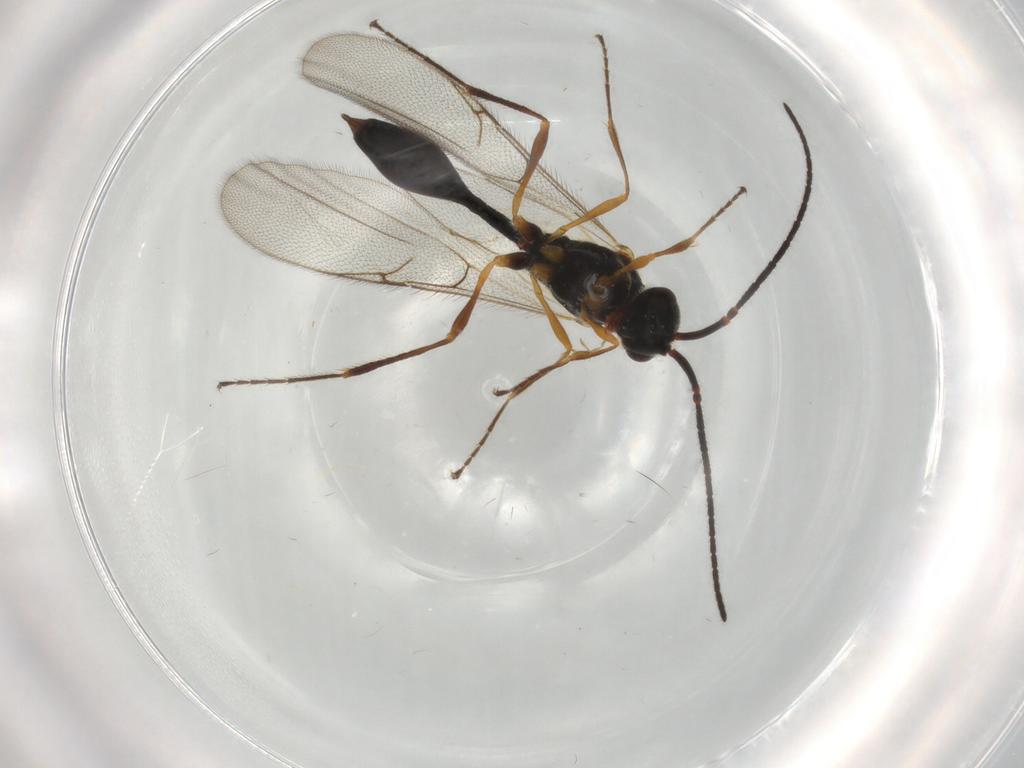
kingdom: Animalia
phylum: Arthropoda
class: Insecta
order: Hymenoptera
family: Diapriidae
